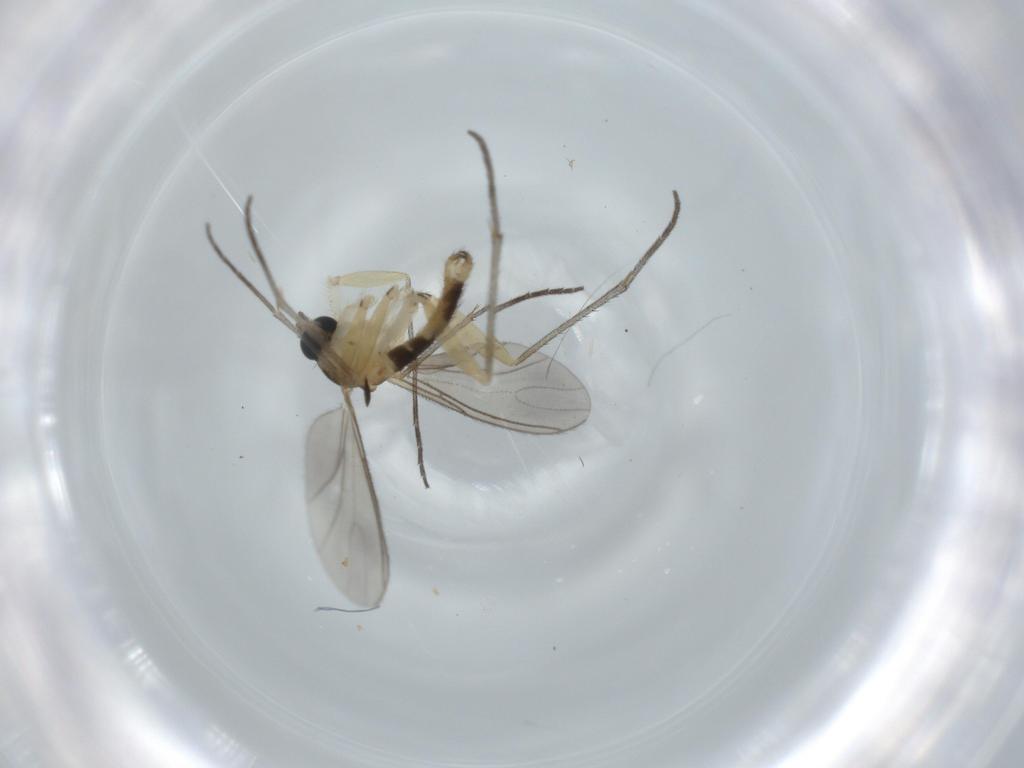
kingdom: Animalia
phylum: Arthropoda
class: Insecta
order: Diptera
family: Sciaridae
